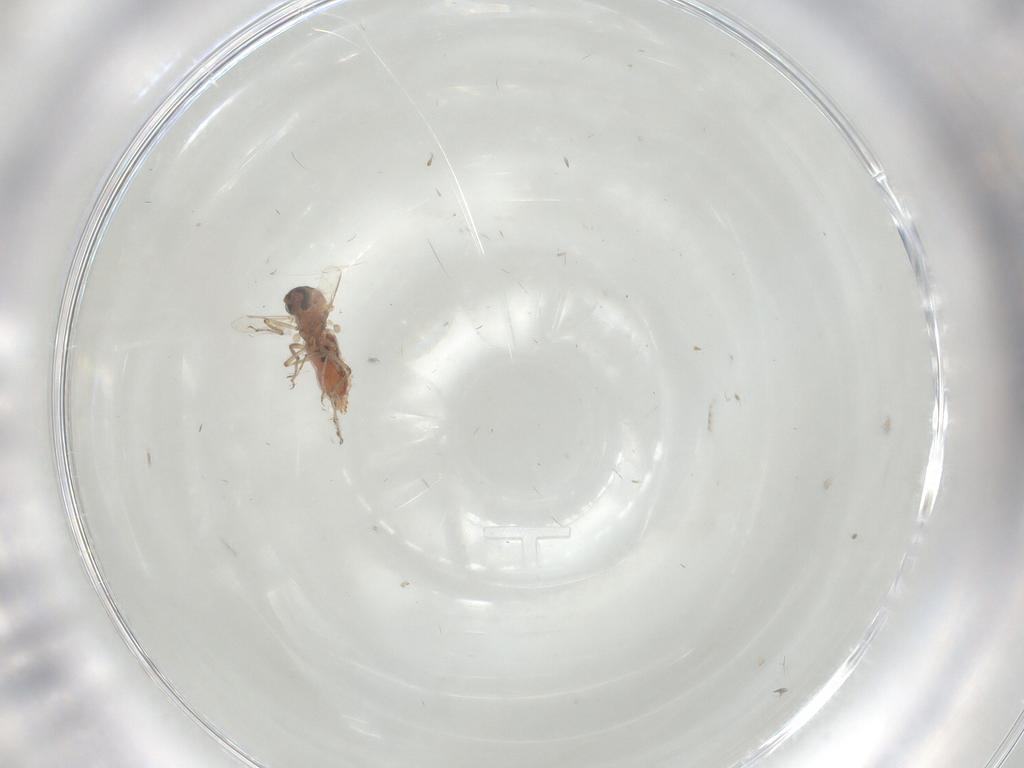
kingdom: Animalia
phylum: Arthropoda
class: Insecta
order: Diptera
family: Ceratopogonidae
